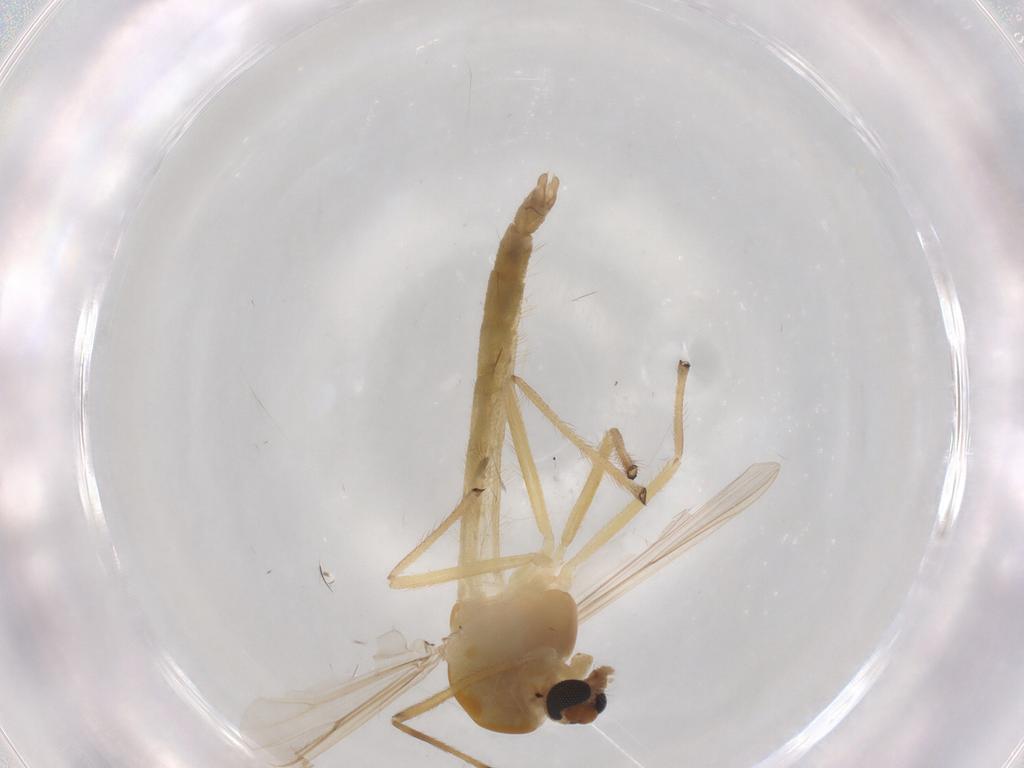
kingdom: Animalia
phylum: Arthropoda
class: Insecta
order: Diptera
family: Chironomidae
